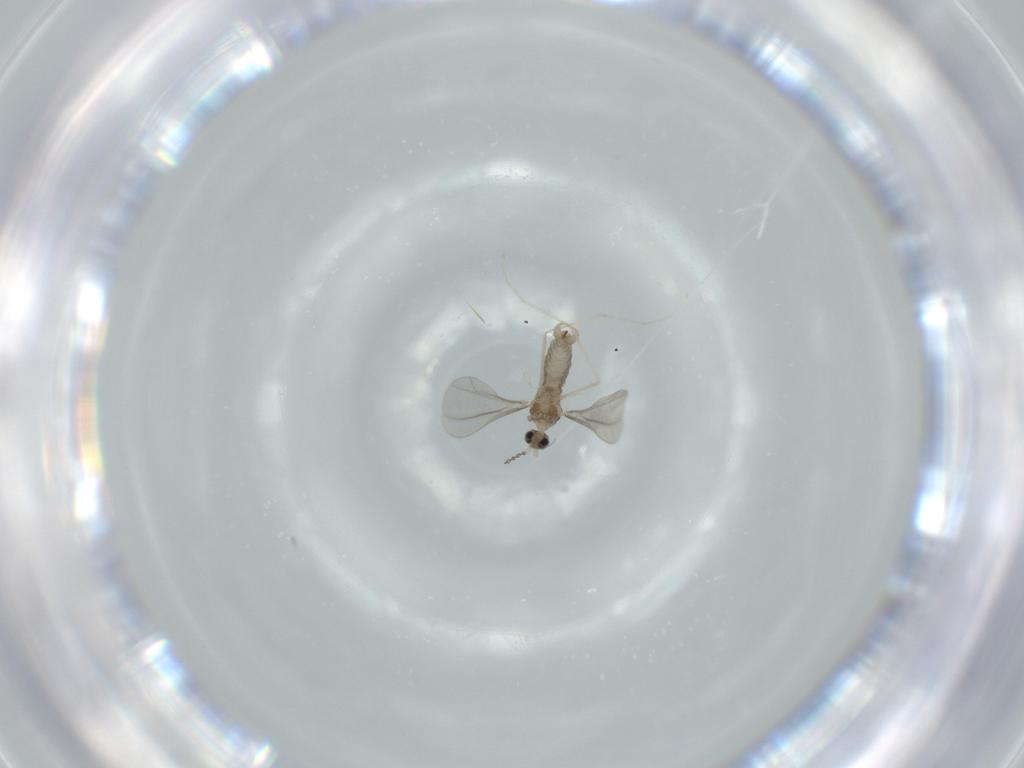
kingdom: Animalia
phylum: Arthropoda
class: Insecta
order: Diptera
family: Cecidomyiidae
